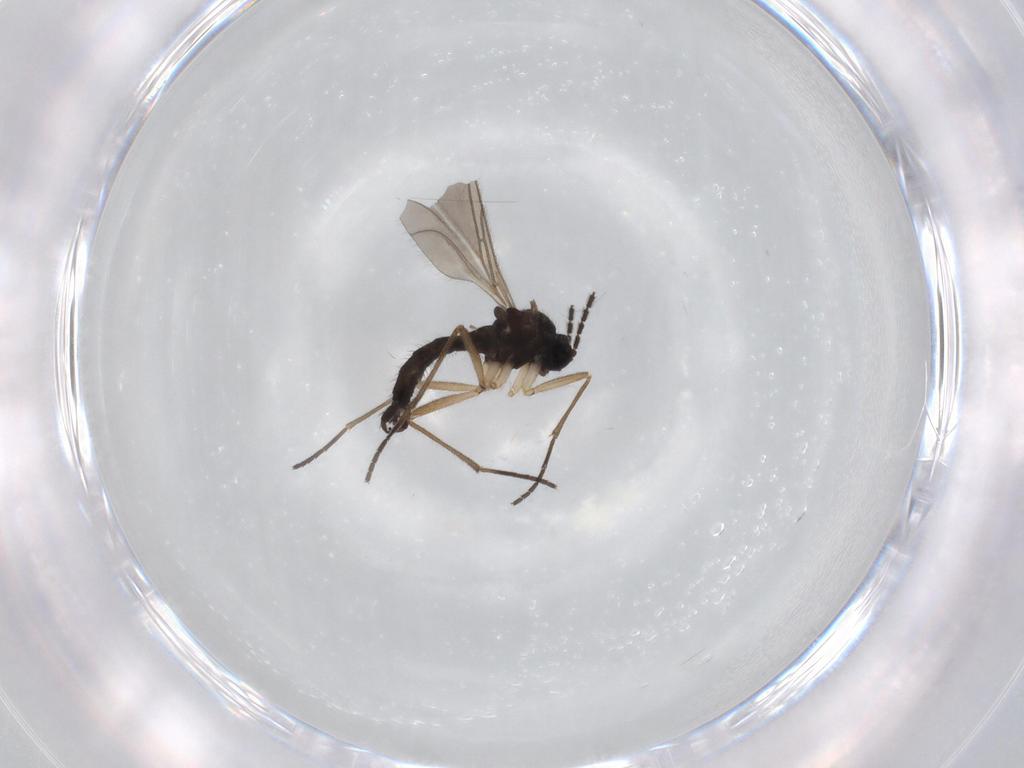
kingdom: Animalia
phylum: Arthropoda
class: Insecta
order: Diptera
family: Sciaridae
